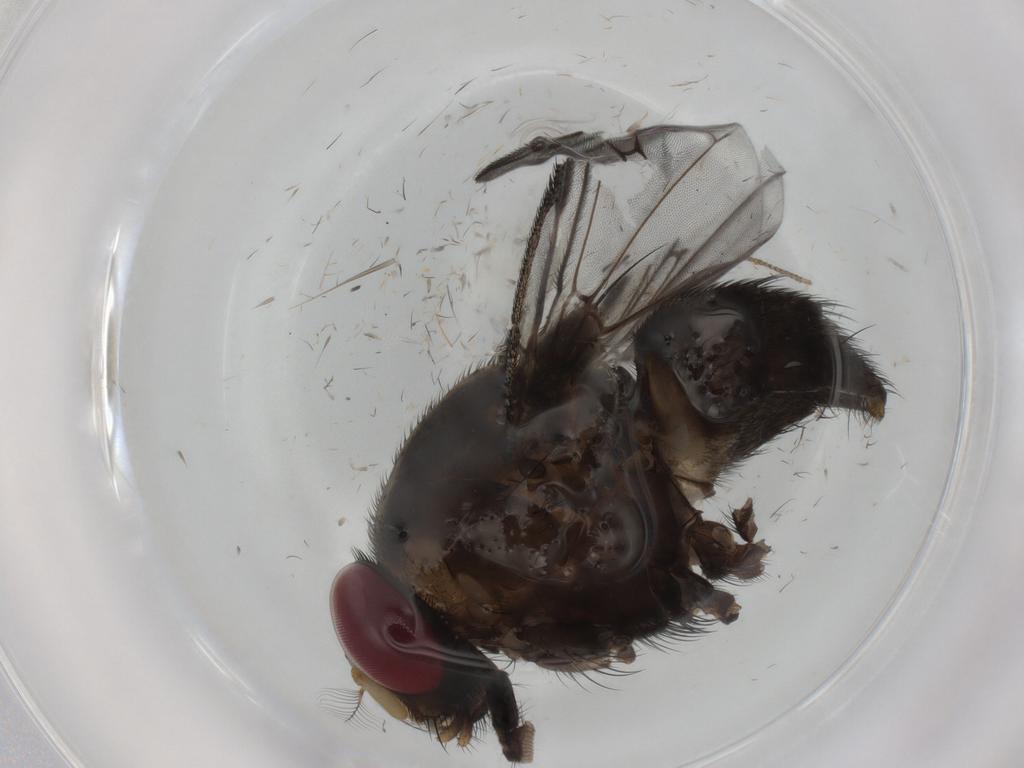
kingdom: Animalia
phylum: Arthropoda
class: Insecta
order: Diptera
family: Muscidae
